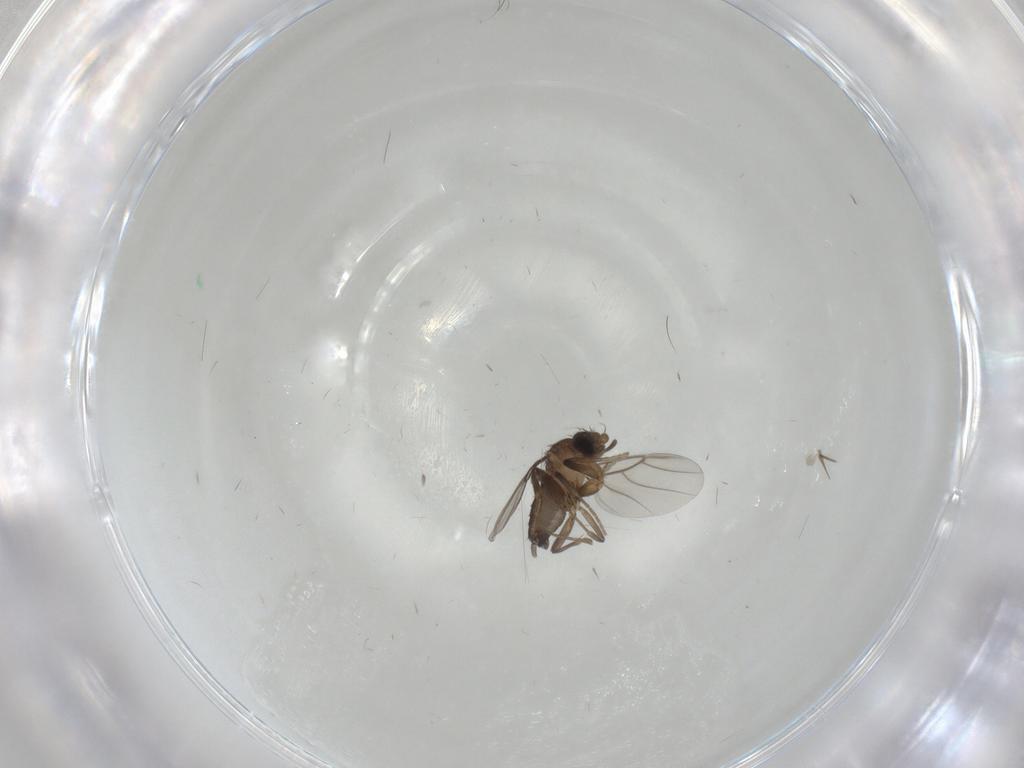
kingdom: Animalia
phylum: Arthropoda
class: Insecta
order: Diptera
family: Phoridae
